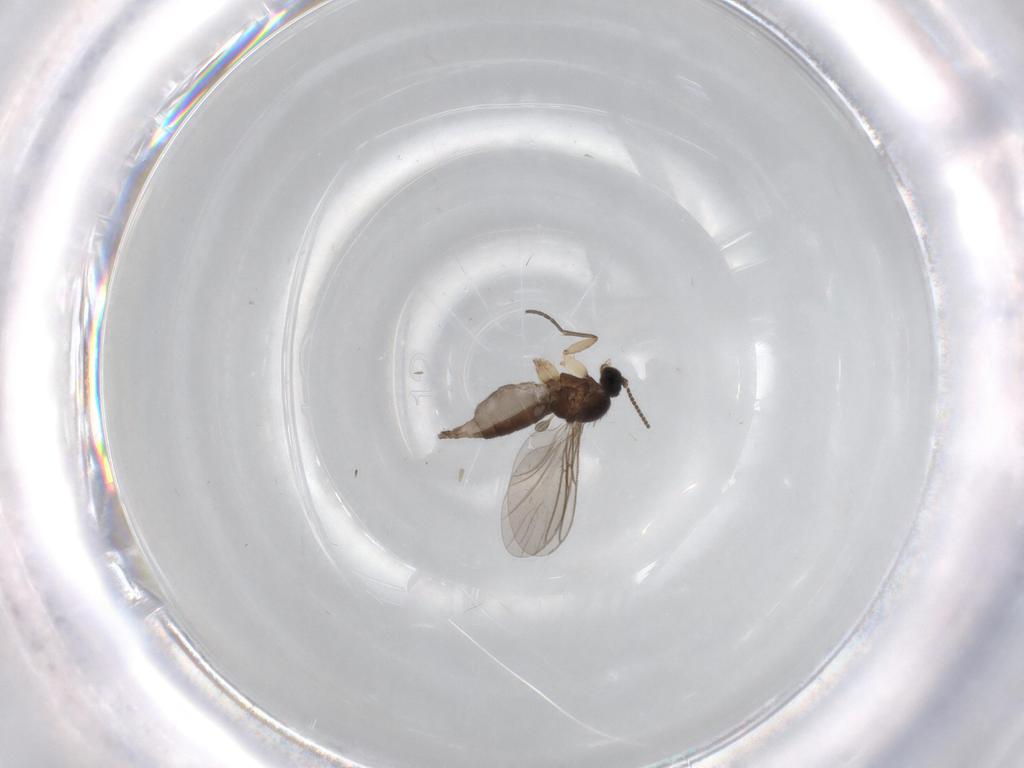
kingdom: Animalia
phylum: Arthropoda
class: Insecta
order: Diptera
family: Sciaridae
